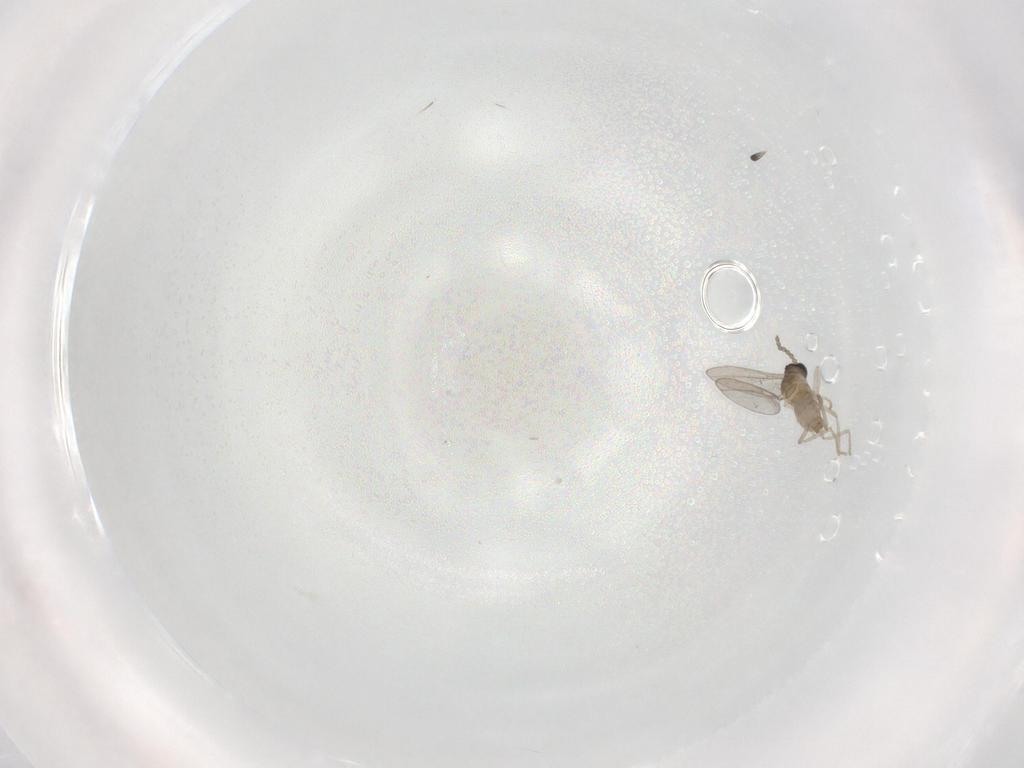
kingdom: Animalia
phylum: Arthropoda
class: Insecta
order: Diptera
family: Cecidomyiidae
